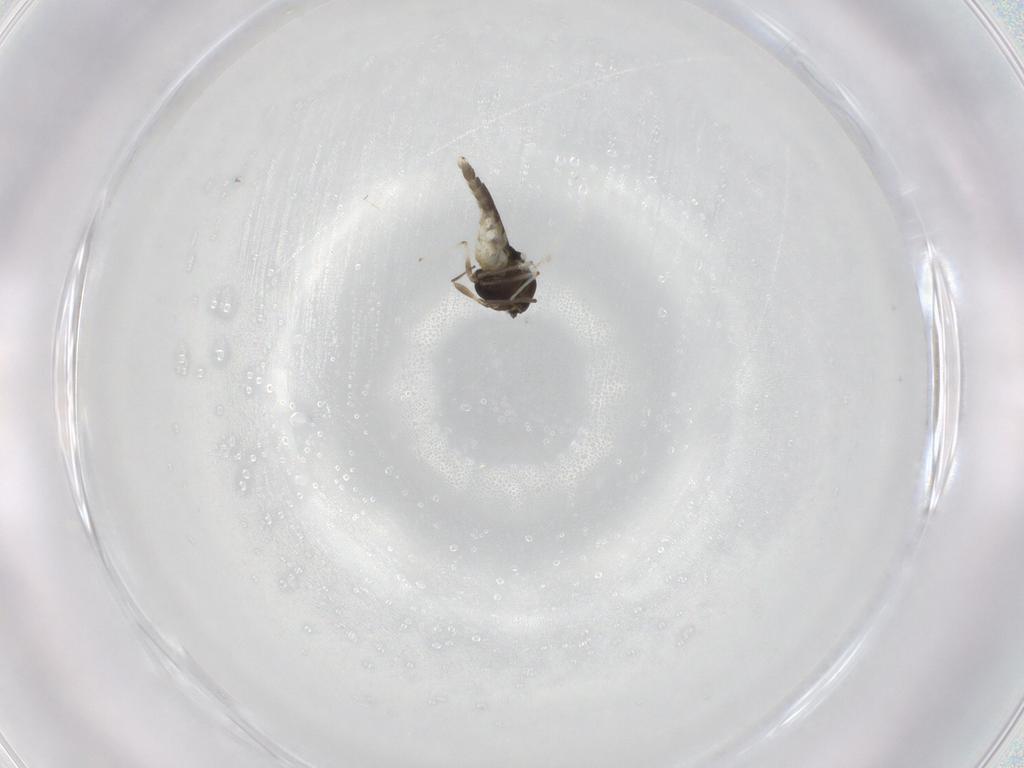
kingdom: Animalia
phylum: Arthropoda
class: Insecta
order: Diptera
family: Chironomidae
